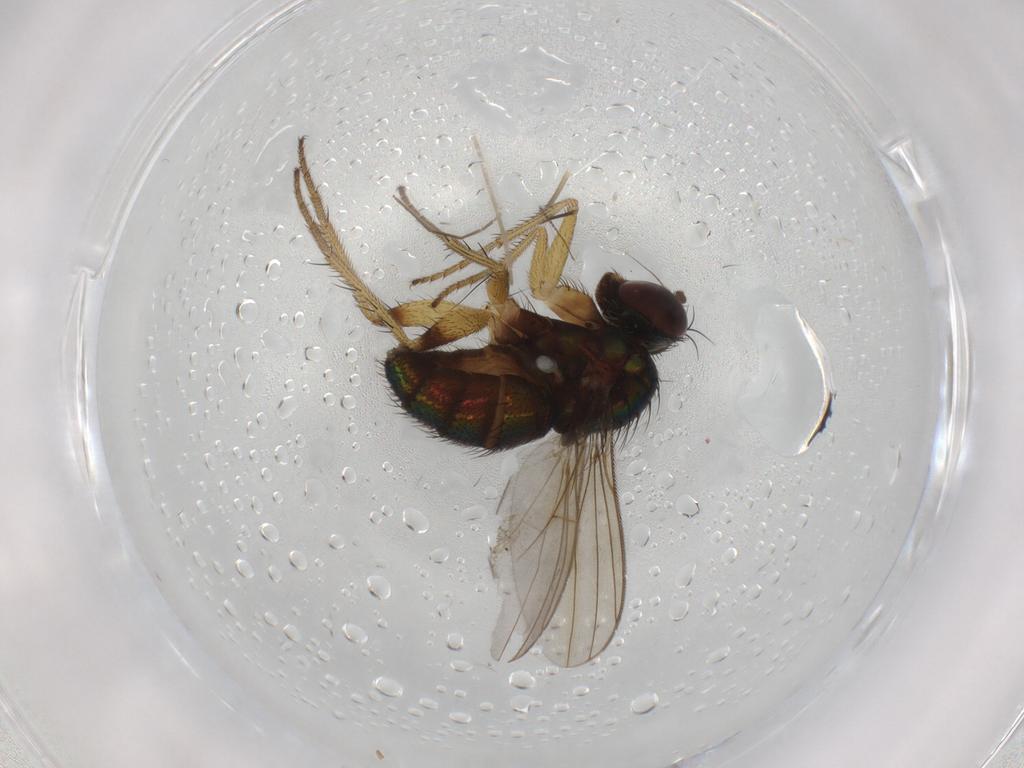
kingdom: Animalia
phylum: Arthropoda
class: Insecta
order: Diptera
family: Dolichopodidae
